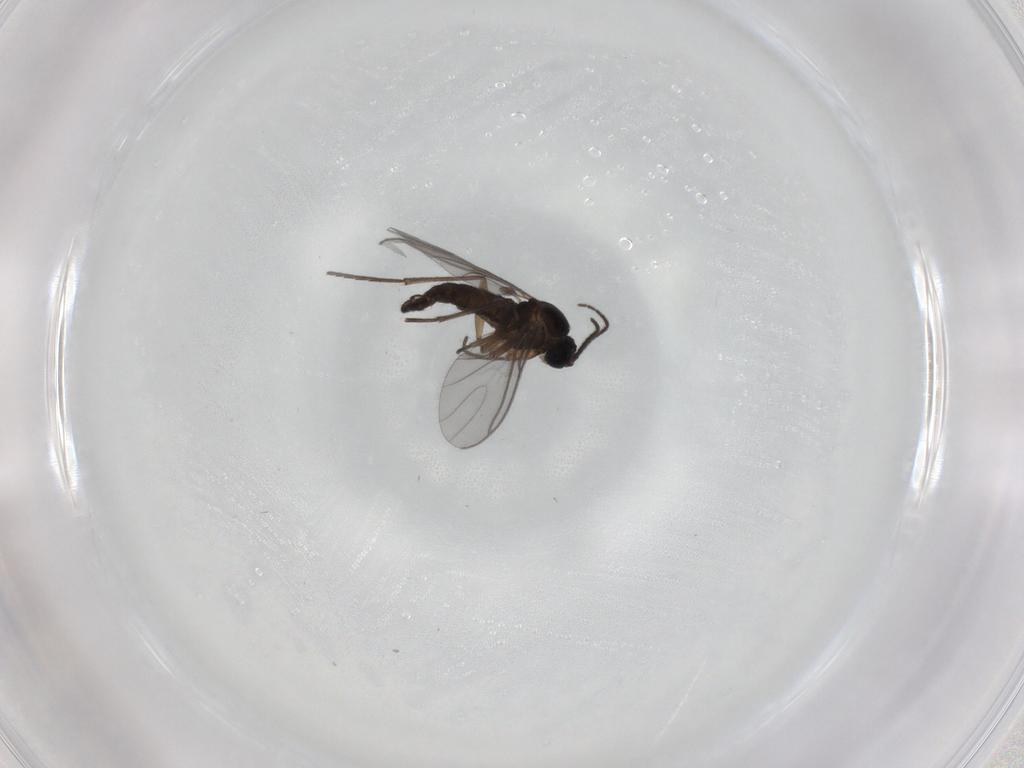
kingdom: Animalia
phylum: Arthropoda
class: Insecta
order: Diptera
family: Sciaridae
